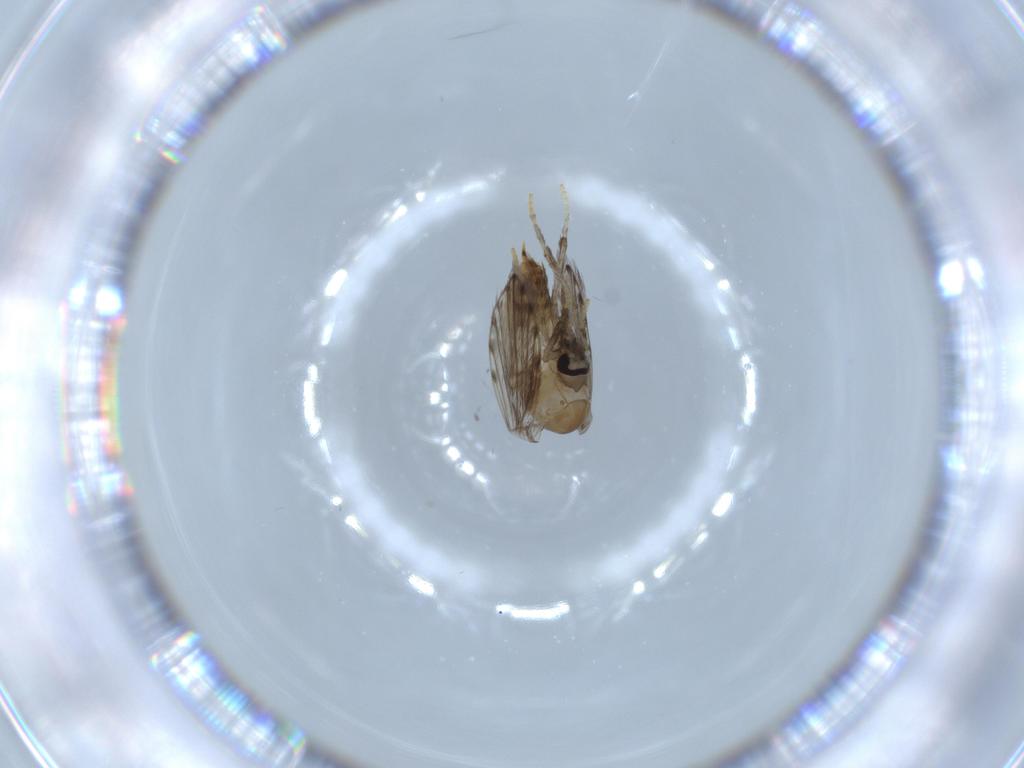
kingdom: Animalia
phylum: Arthropoda
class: Insecta
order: Diptera
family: Psychodidae
